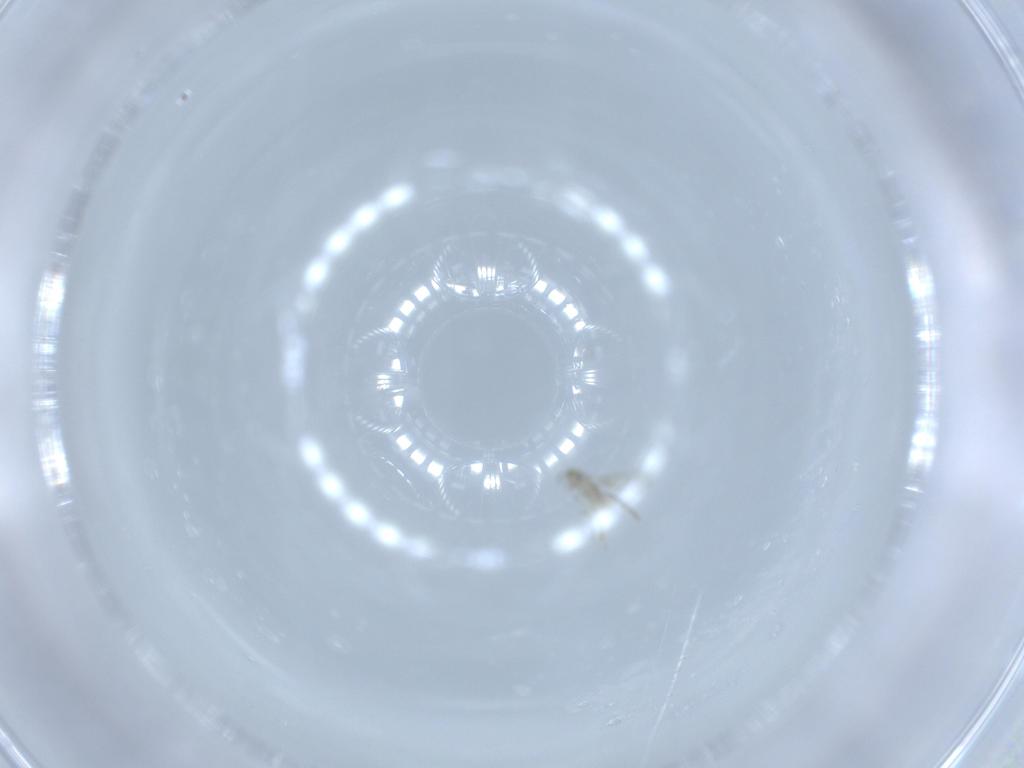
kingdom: Animalia
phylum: Arthropoda
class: Insecta
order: Hymenoptera
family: Aphelinidae
